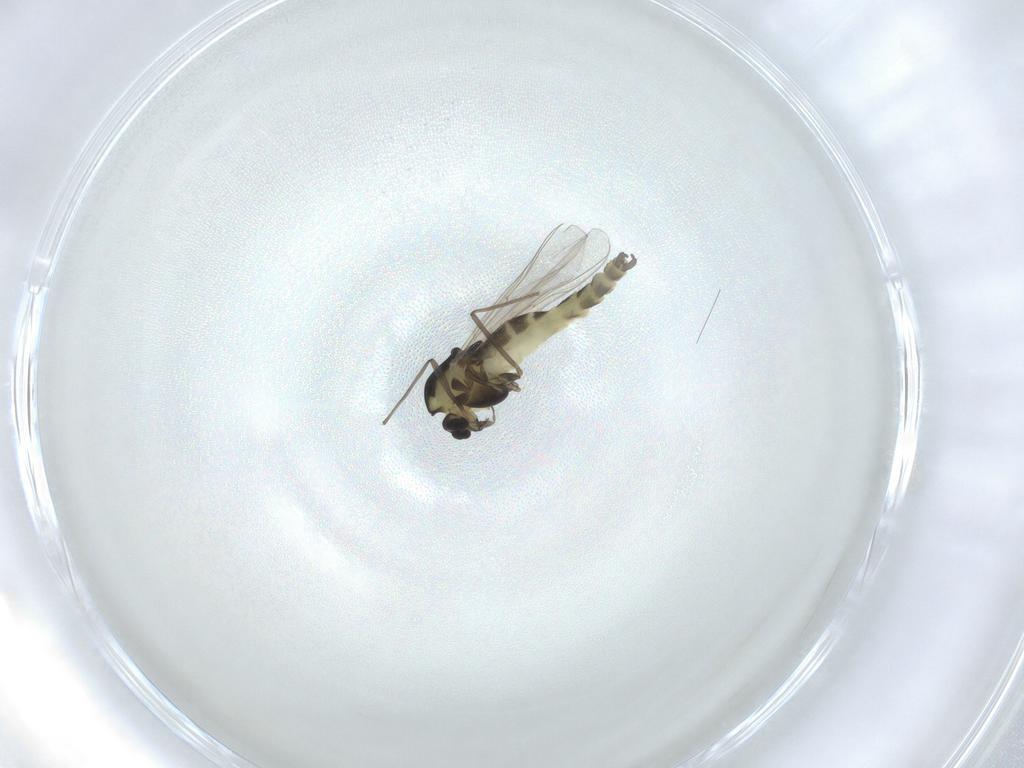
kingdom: Animalia
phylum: Arthropoda
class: Insecta
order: Diptera
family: Chironomidae
